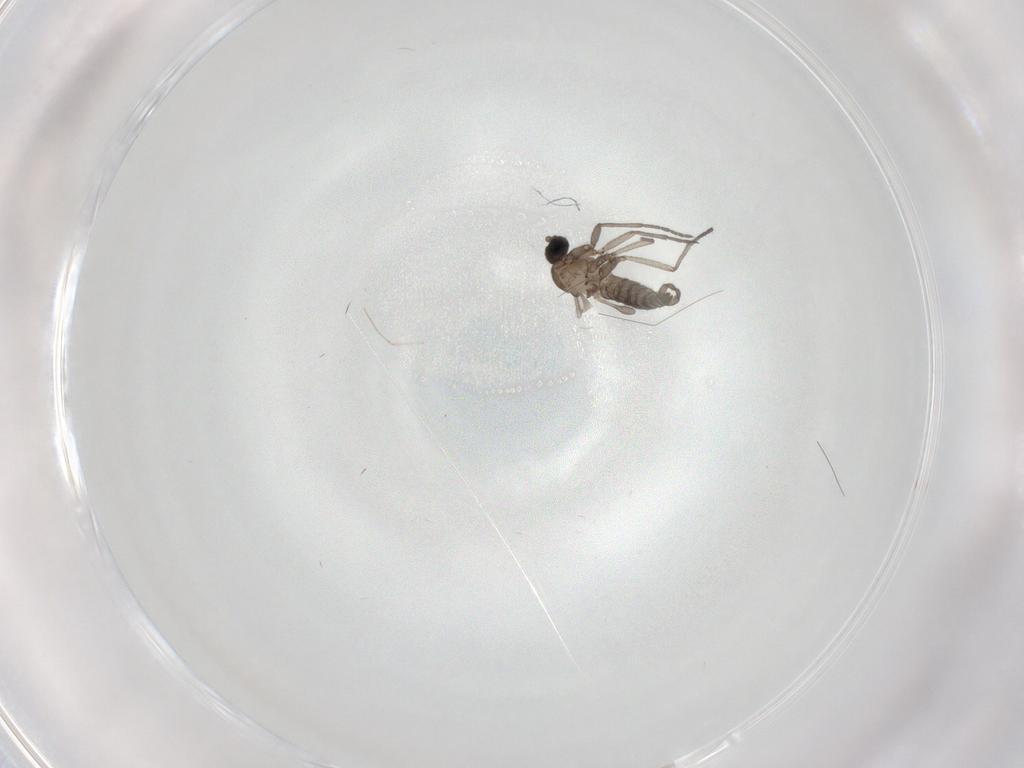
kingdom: Animalia
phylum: Arthropoda
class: Insecta
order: Diptera
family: Sciaridae
